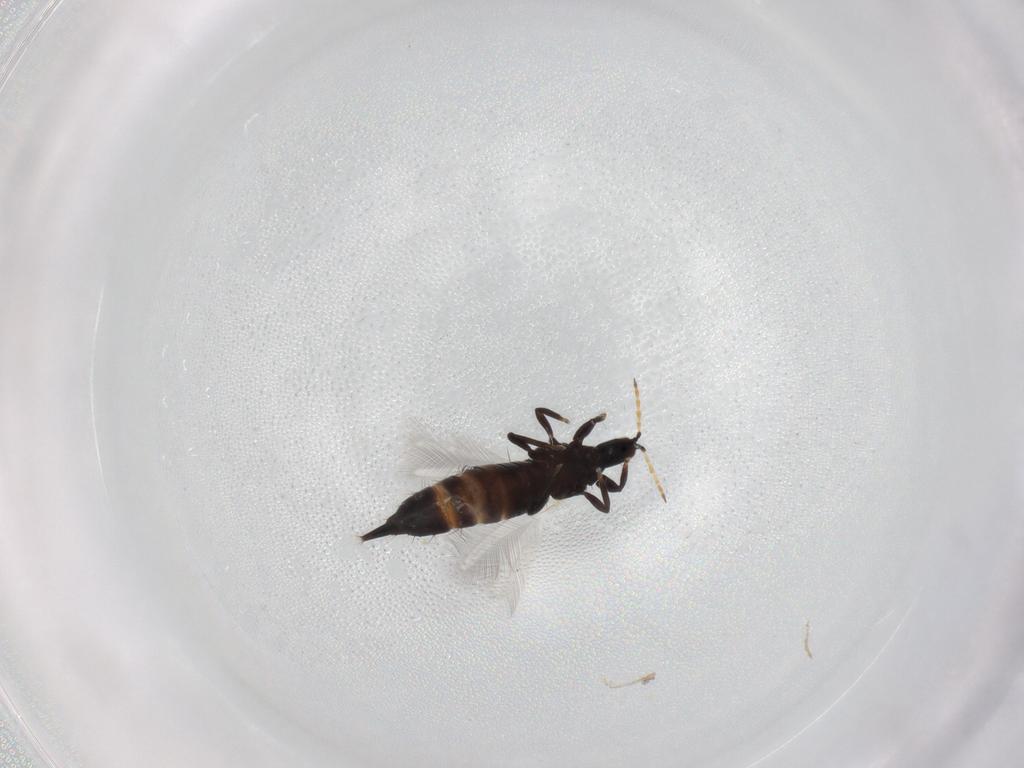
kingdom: Animalia
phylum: Arthropoda
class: Insecta
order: Thysanoptera
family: Phlaeothripidae
